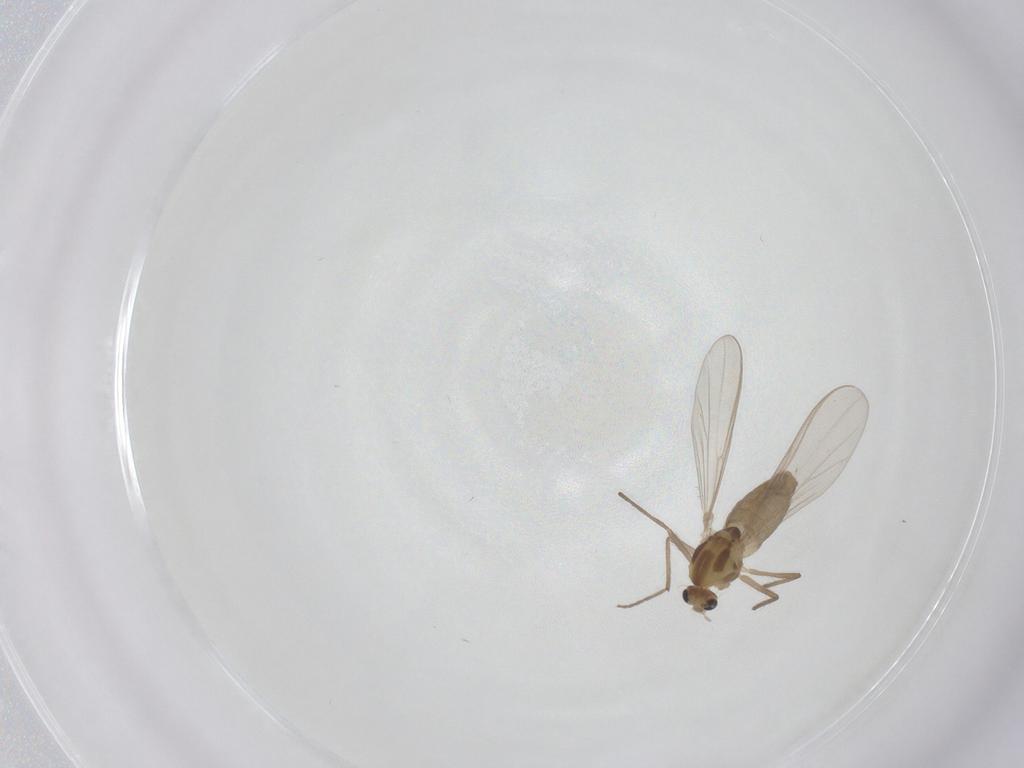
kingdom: Animalia
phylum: Arthropoda
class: Insecta
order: Diptera
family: Chironomidae
